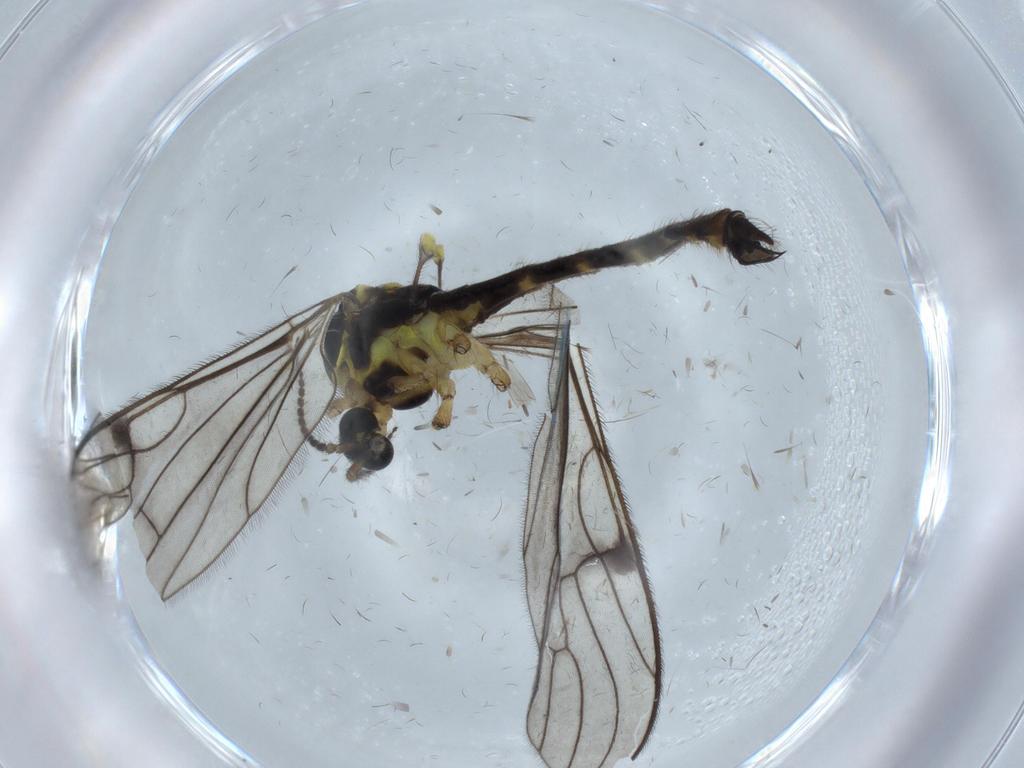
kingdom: Animalia
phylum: Arthropoda
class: Insecta
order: Diptera
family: Limoniidae
